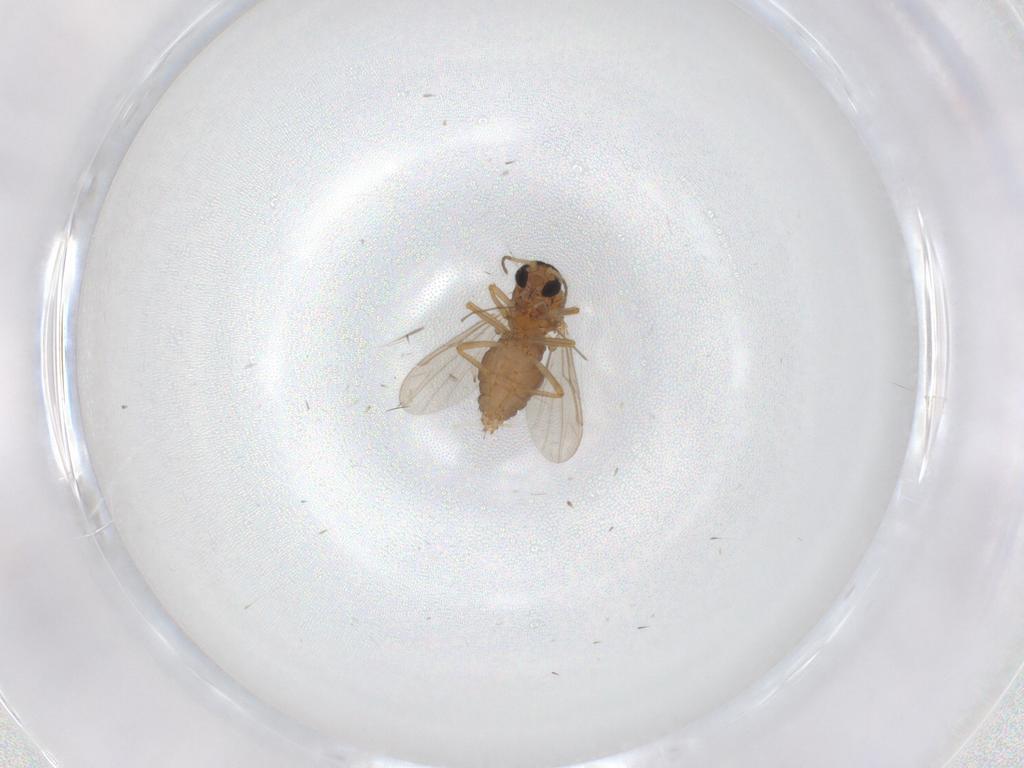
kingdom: Animalia
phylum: Arthropoda
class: Insecta
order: Diptera
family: Ceratopogonidae
